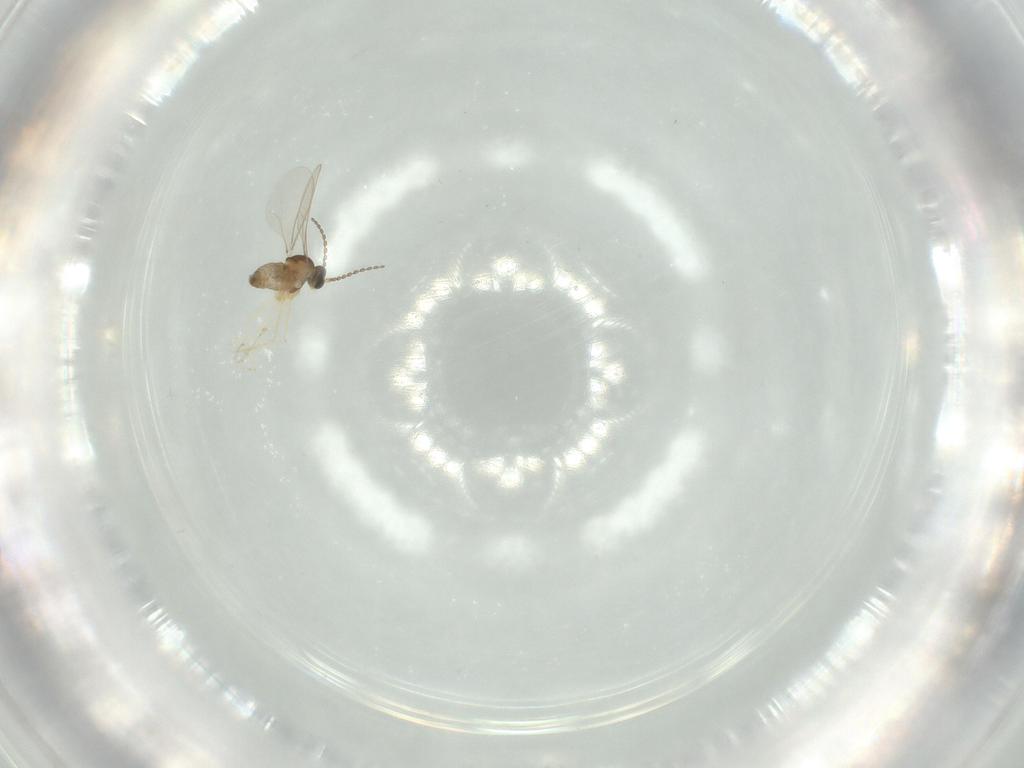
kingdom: Animalia
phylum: Arthropoda
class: Insecta
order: Diptera
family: Cecidomyiidae
